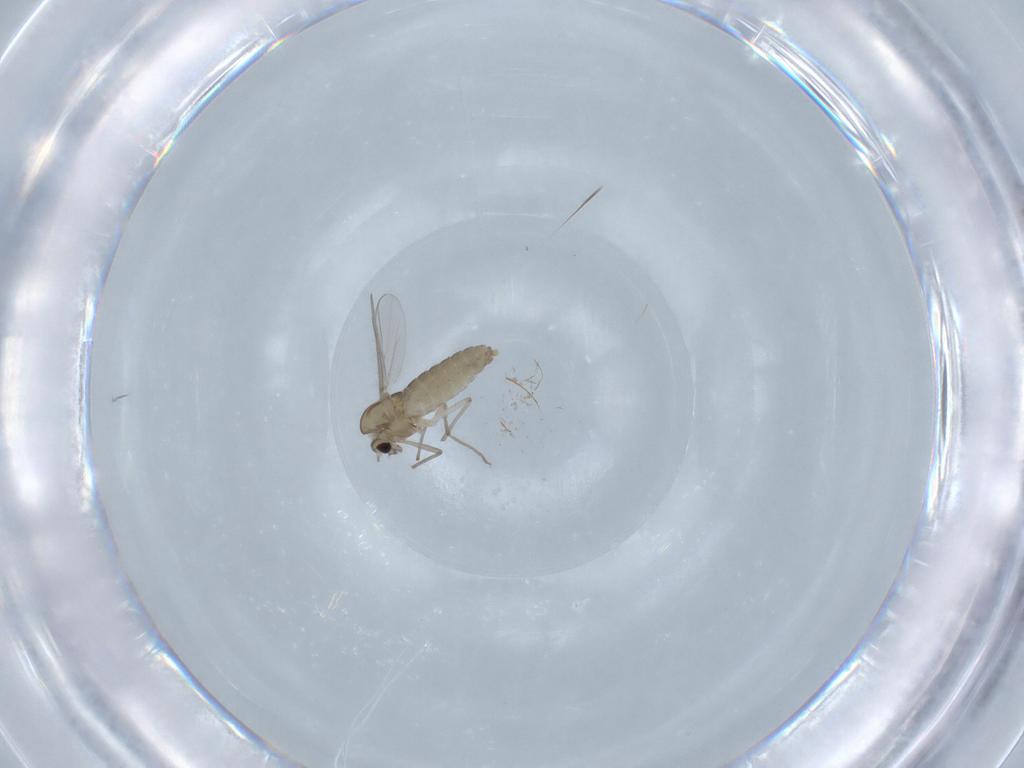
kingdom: Animalia
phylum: Arthropoda
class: Insecta
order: Diptera
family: Chironomidae
